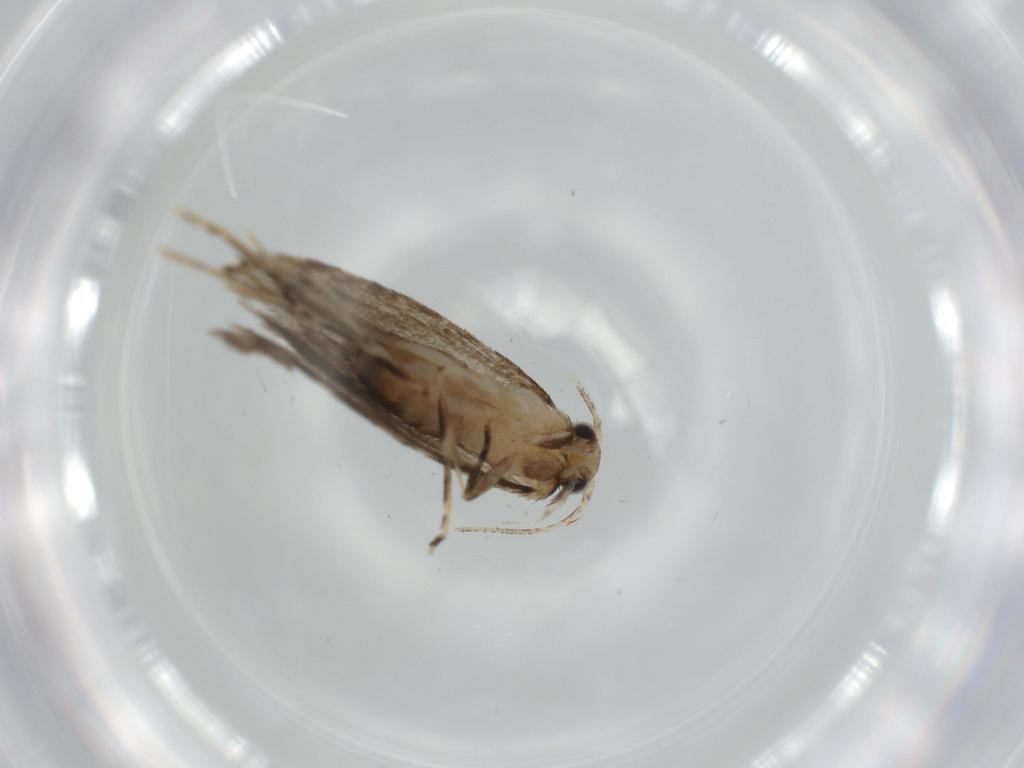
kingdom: Animalia
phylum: Arthropoda
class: Insecta
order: Lepidoptera
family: Tineidae
